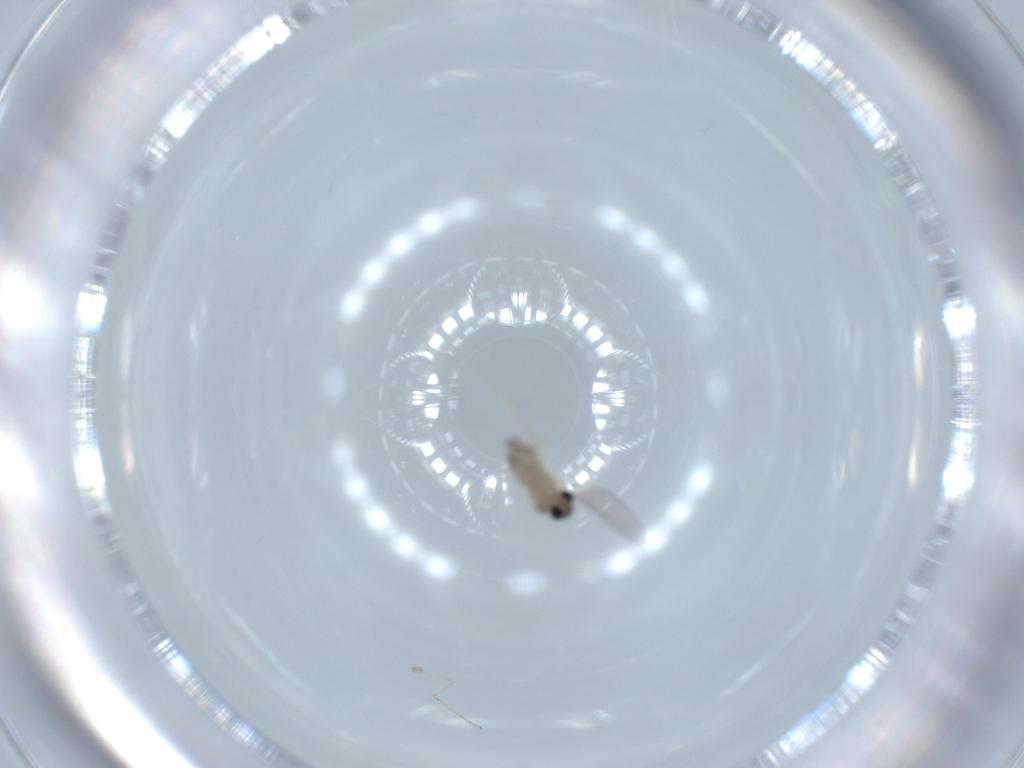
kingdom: Animalia
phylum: Arthropoda
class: Insecta
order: Diptera
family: Cecidomyiidae
